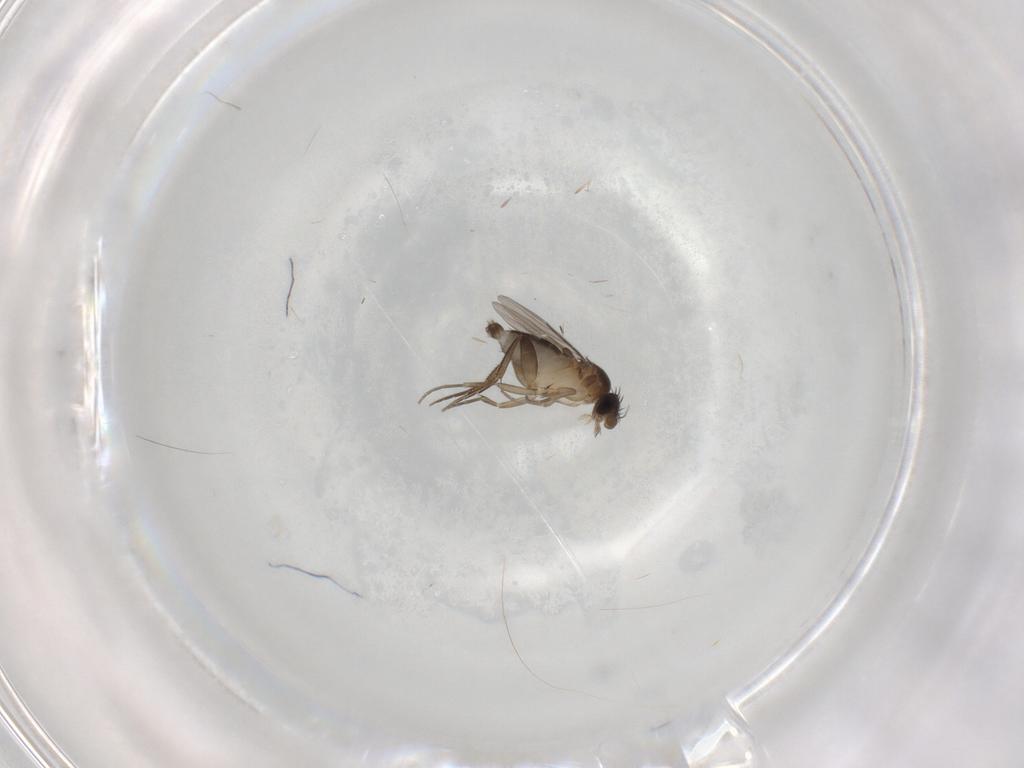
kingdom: Animalia
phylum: Arthropoda
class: Insecta
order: Diptera
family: Phoridae
